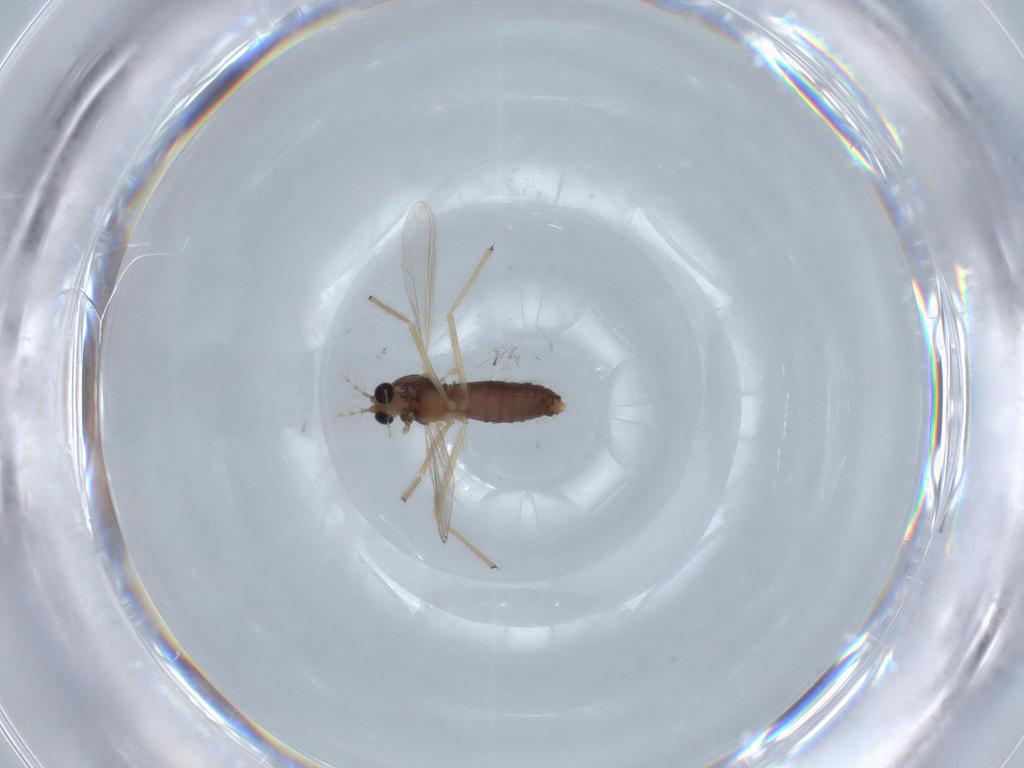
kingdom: Animalia
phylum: Arthropoda
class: Insecta
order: Diptera
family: Chironomidae
